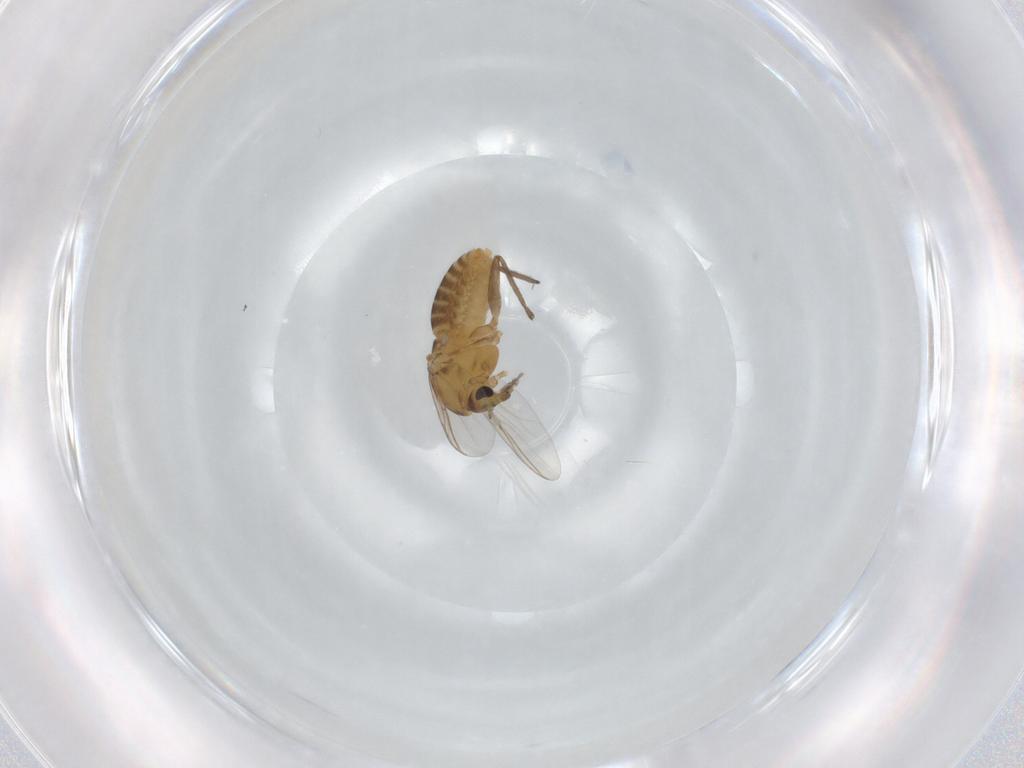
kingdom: Animalia
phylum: Arthropoda
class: Insecta
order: Diptera
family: Chironomidae
